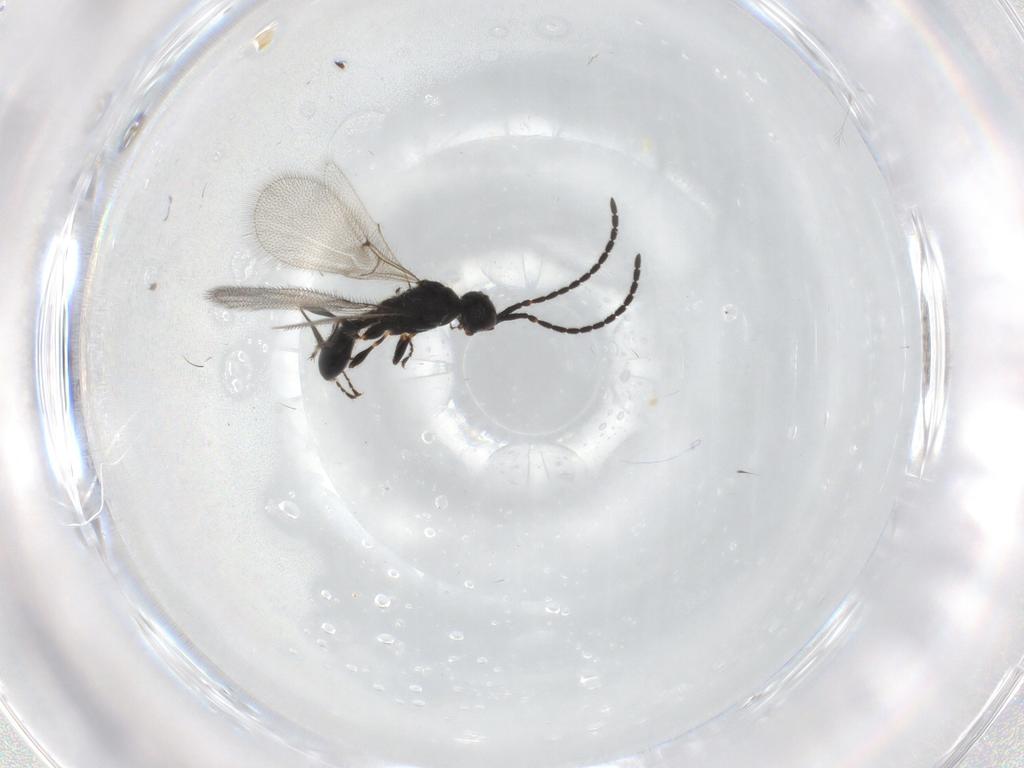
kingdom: Animalia
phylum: Arthropoda
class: Insecta
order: Hymenoptera
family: Diapriidae
